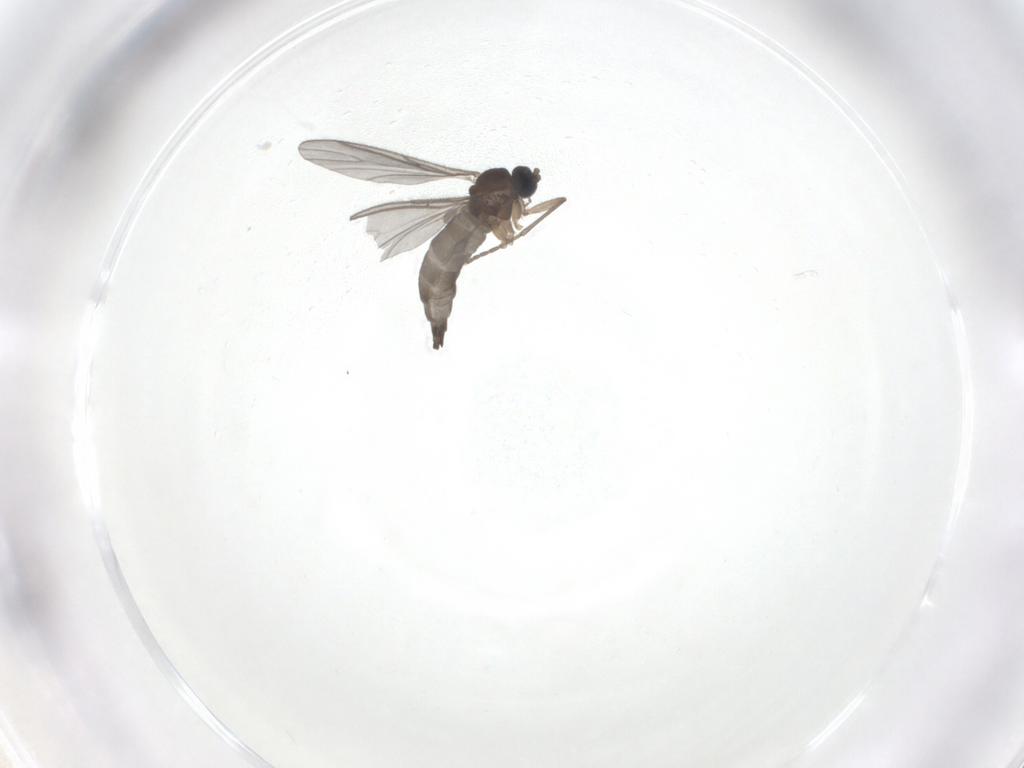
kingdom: Animalia
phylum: Arthropoda
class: Insecta
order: Diptera
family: Sciaridae
